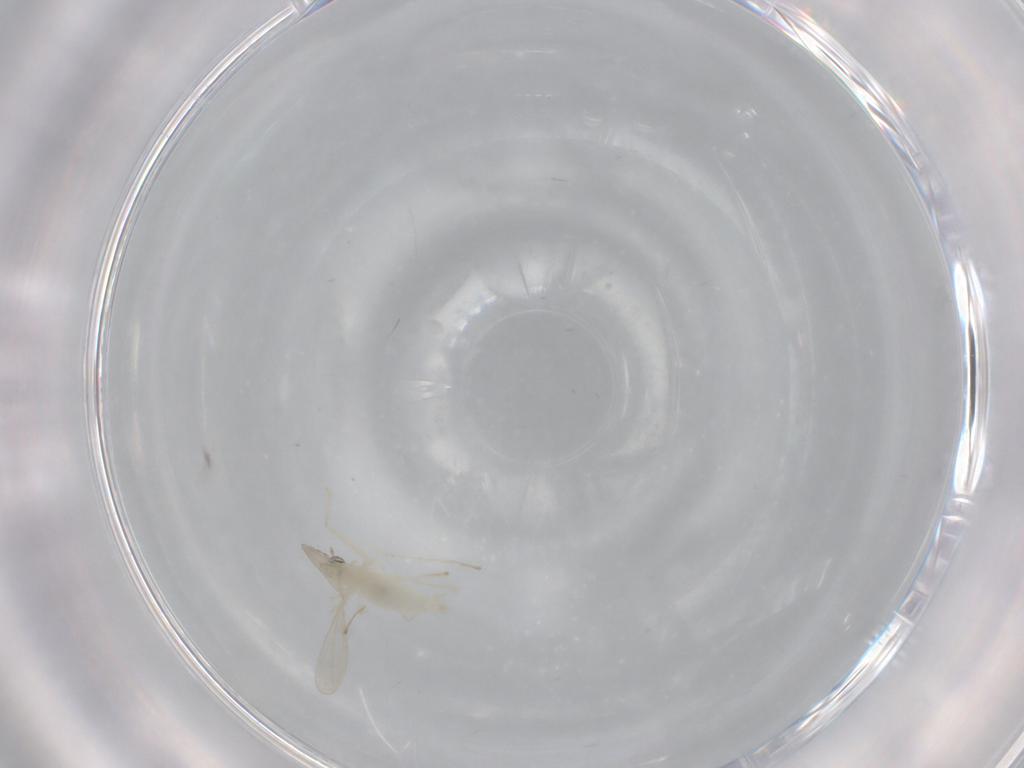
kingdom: Animalia
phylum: Arthropoda
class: Insecta
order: Diptera
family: Cecidomyiidae
